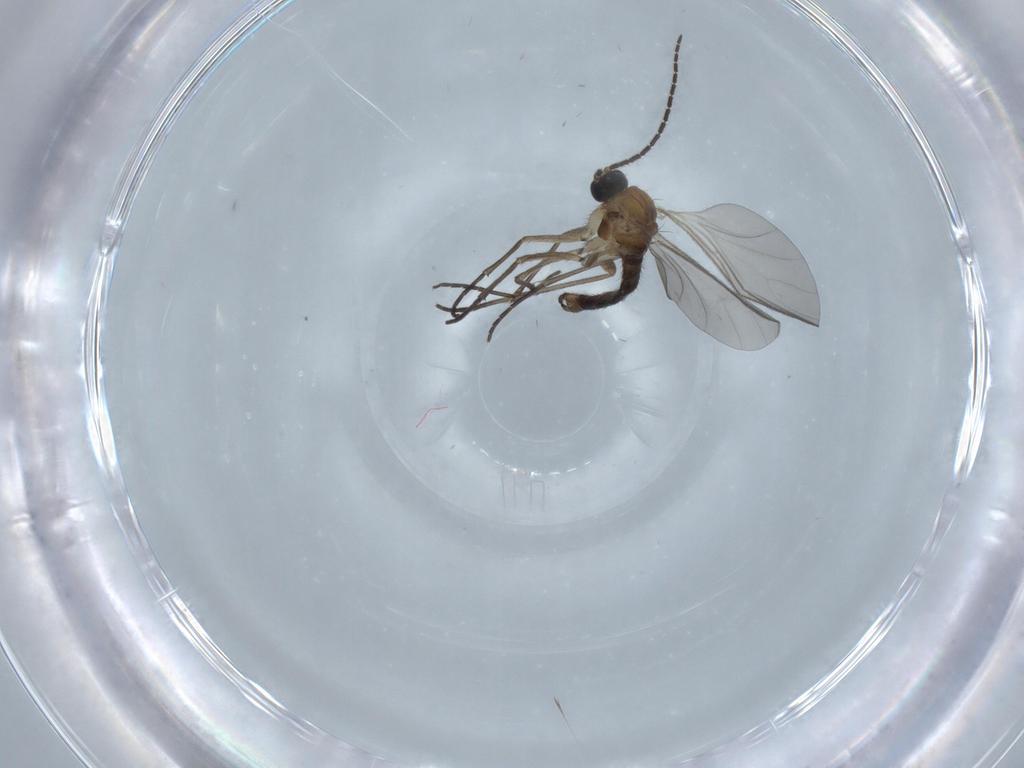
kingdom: Animalia
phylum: Arthropoda
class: Insecta
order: Diptera
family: Sciaridae
